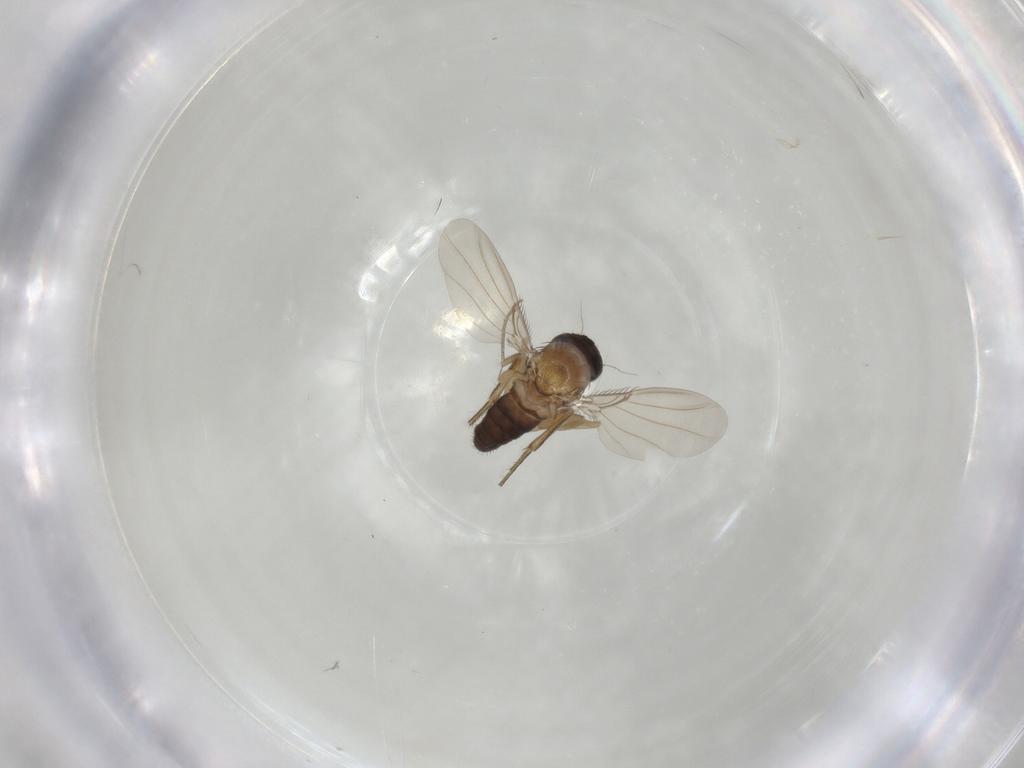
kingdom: Animalia
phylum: Arthropoda
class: Insecta
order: Diptera
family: Phoridae
